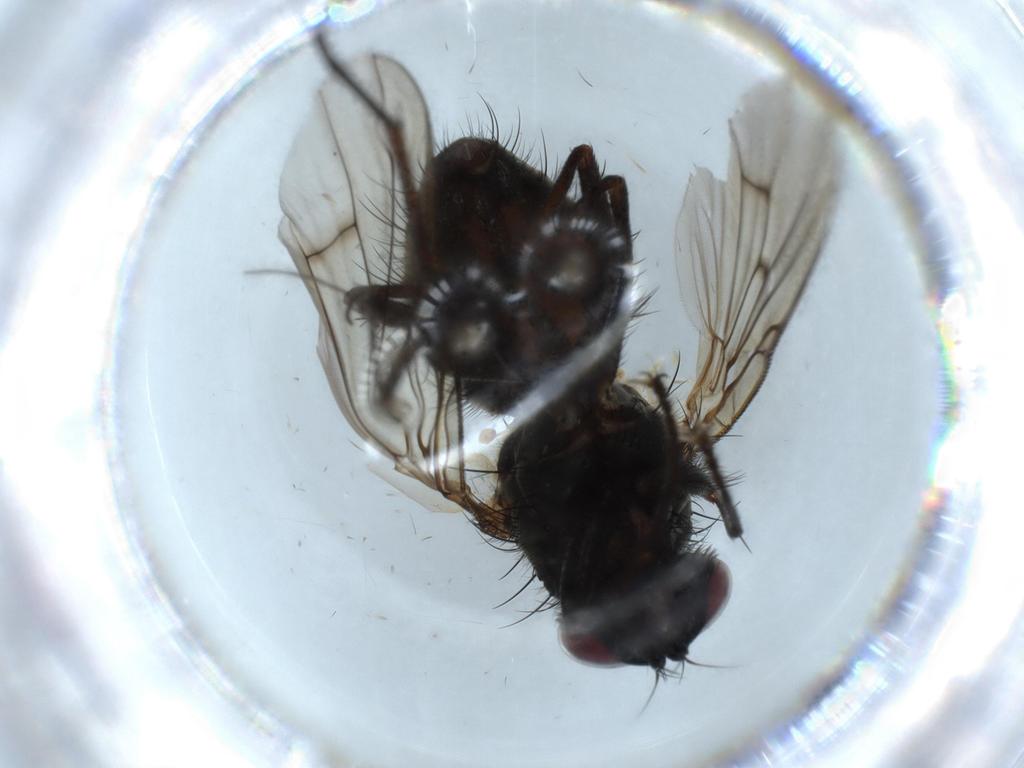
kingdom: Animalia
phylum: Arthropoda
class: Insecta
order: Diptera
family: Muscidae
